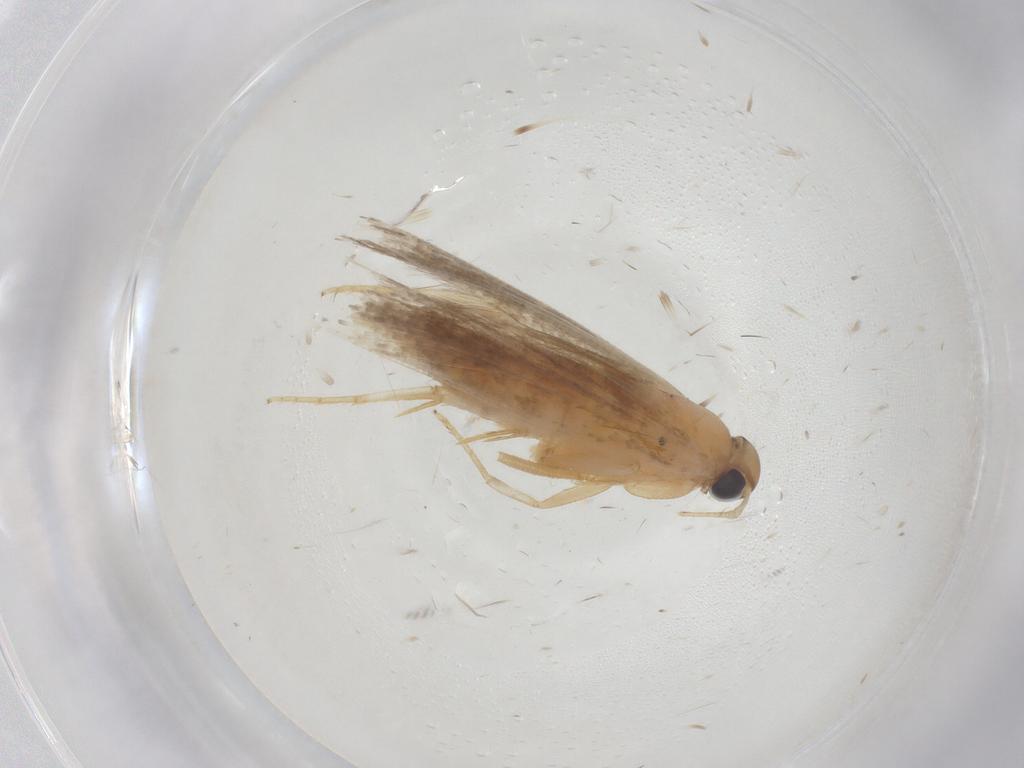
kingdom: Animalia
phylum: Arthropoda
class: Insecta
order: Lepidoptera
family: Gelechiidae
